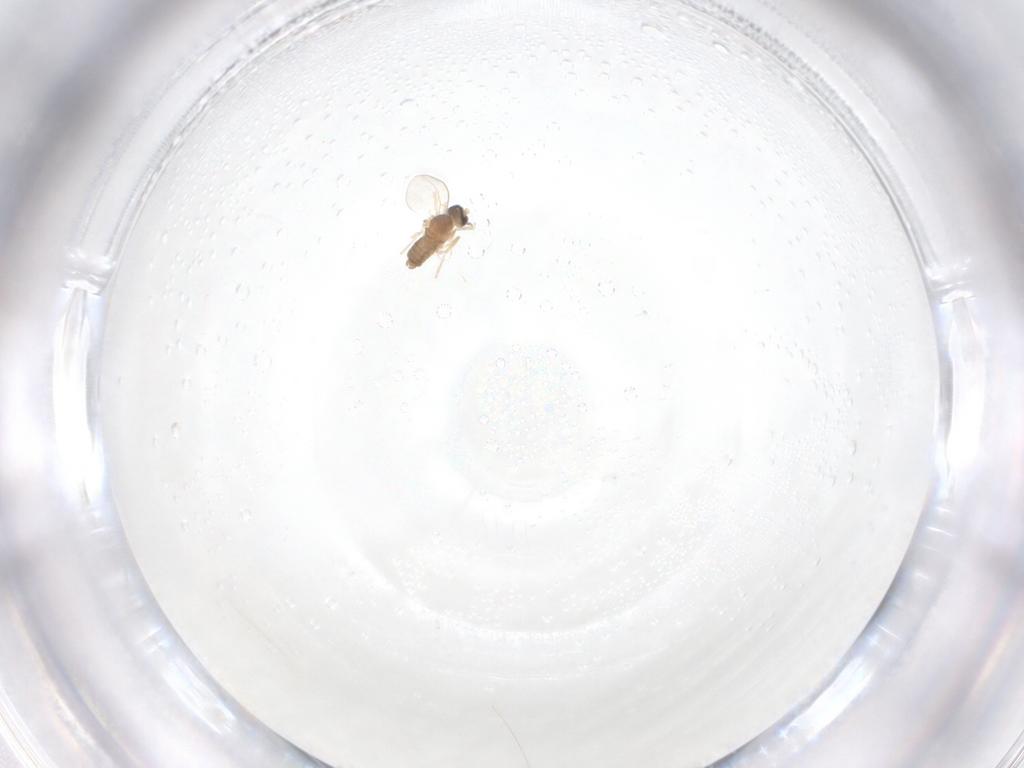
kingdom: Animalia
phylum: Arthropoda
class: Insecta
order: Diptera
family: Cecidomyiidae
